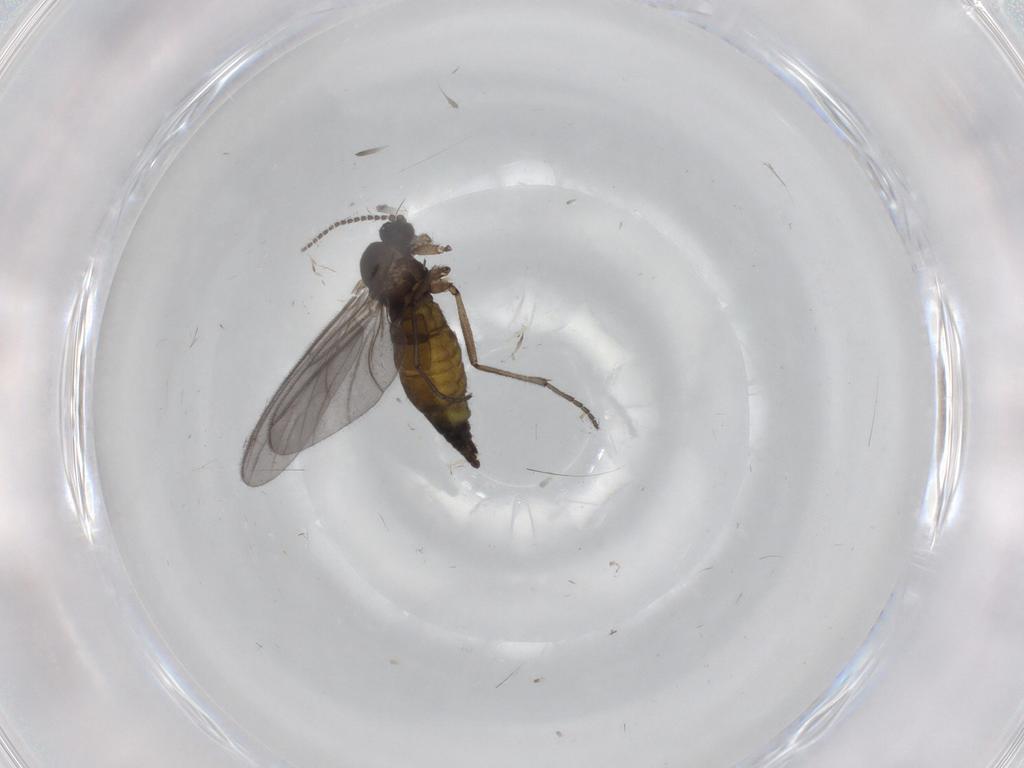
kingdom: Animalia
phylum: Arthropoda
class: Insecta
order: Diptera
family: Sciaridae
